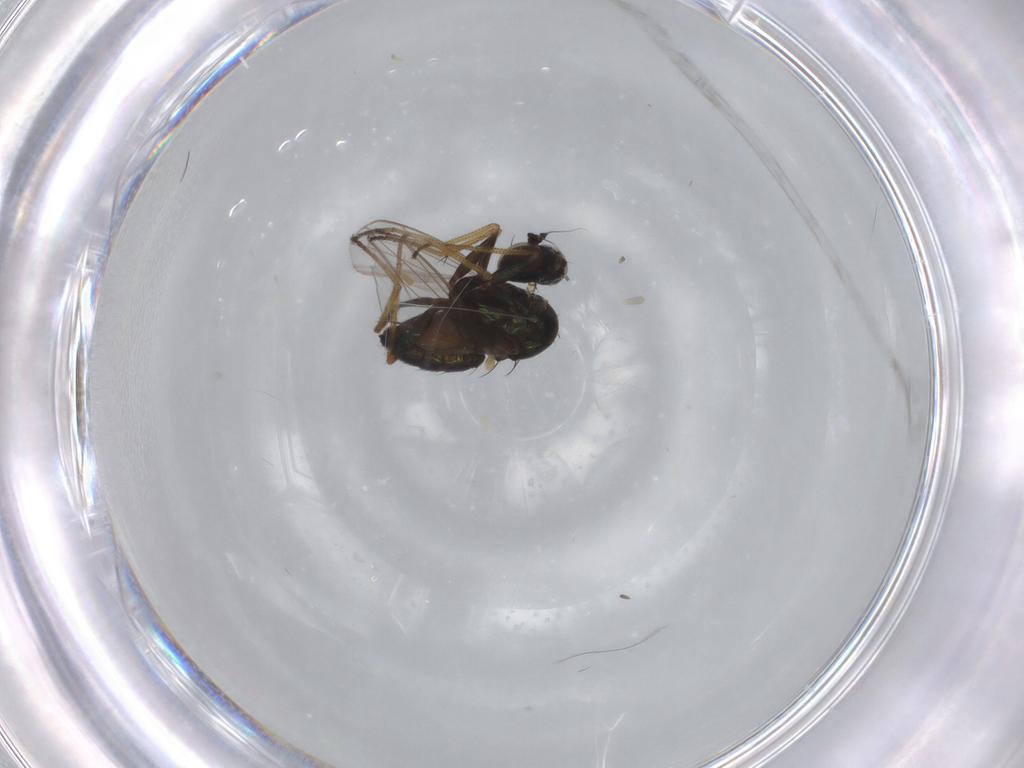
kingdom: Animalia
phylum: Arthropoda
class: Insecta
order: Diptera
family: Dolichopodidae
